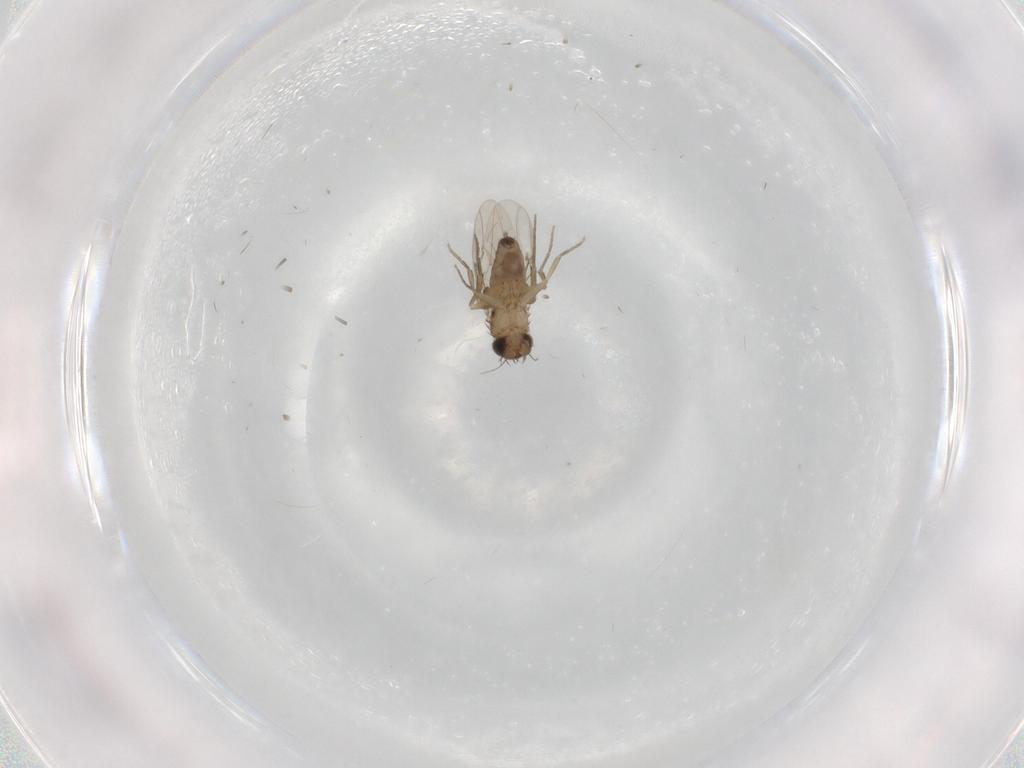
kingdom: Animalia
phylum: Arthropoda
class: Insecta
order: Diptera
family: Phoridae
